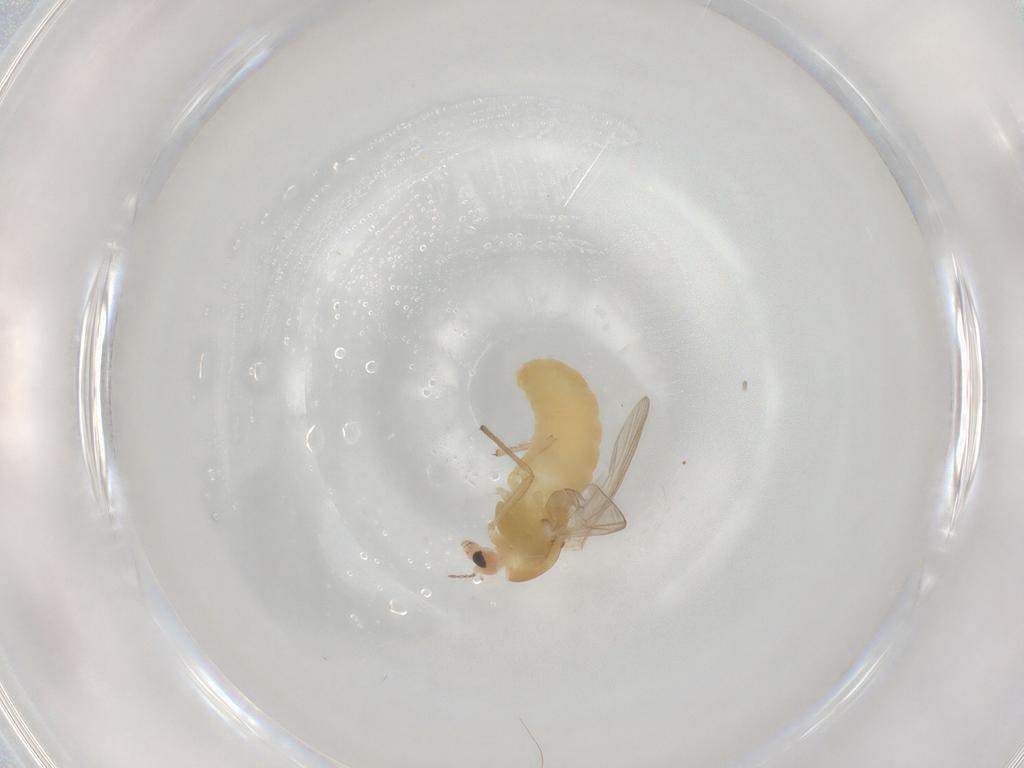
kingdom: Animalia
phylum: Arthropoda
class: Insecta
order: Diptera
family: Chironomidae
